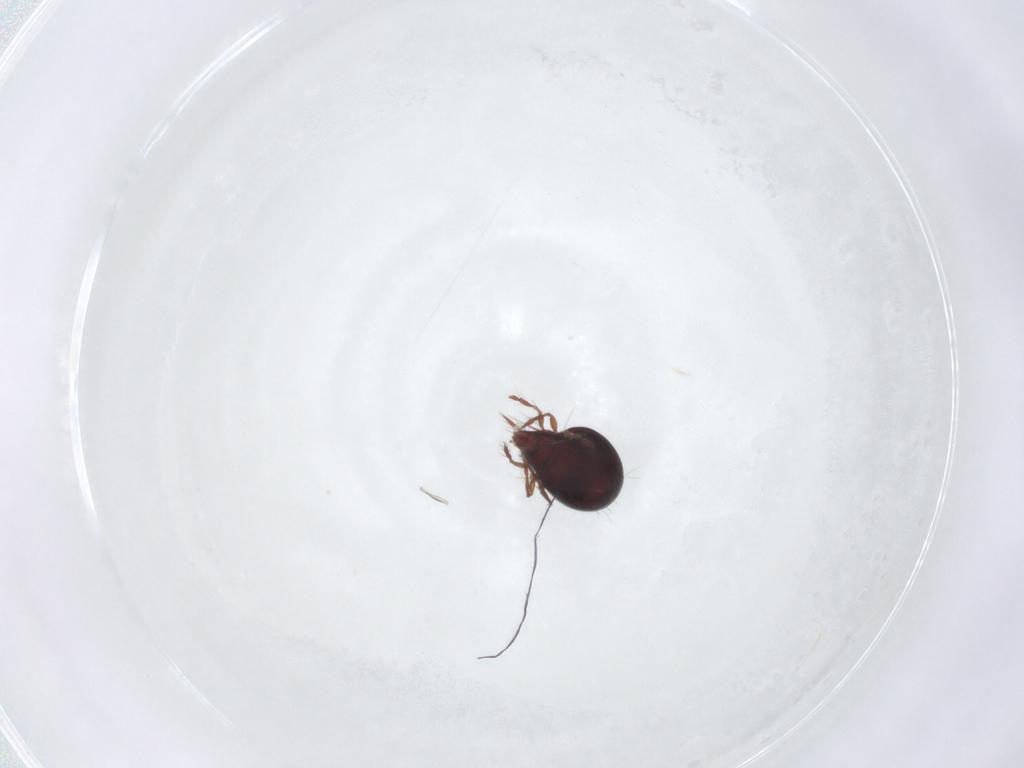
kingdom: Animalia
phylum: Arthropoda
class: Arachnida
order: Sarcoptiformes
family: Ceratoppiidae
